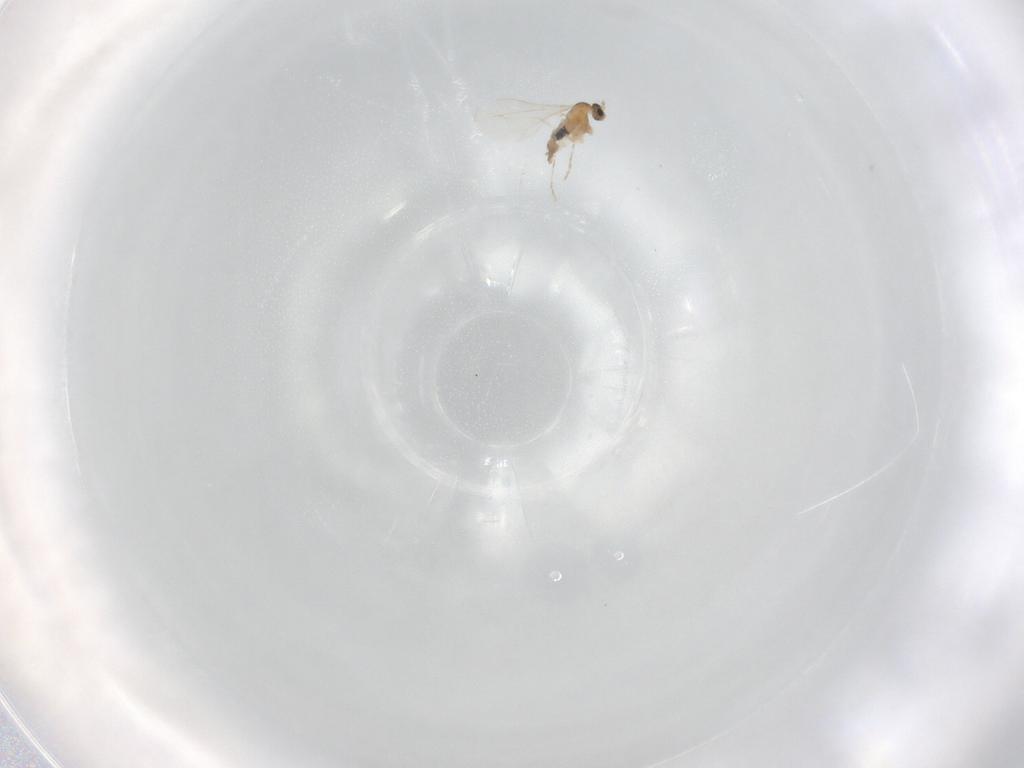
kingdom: Animalia
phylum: Arthropoda
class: Insecta
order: Diptera
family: Cecidomyiidae
